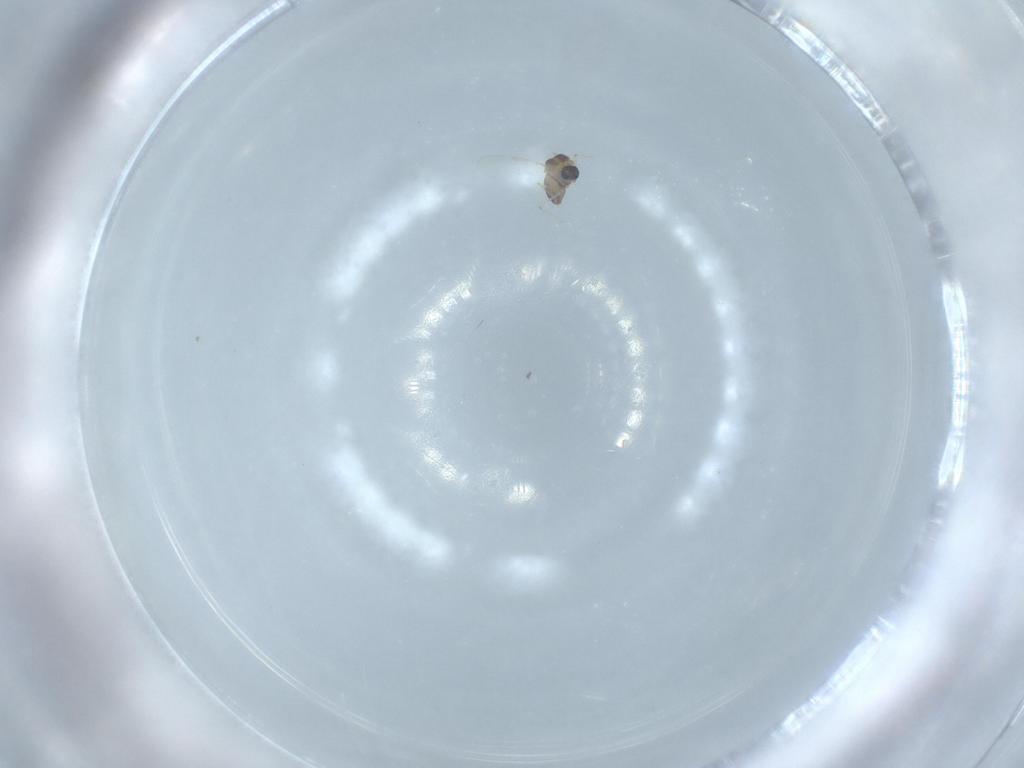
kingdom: Animalia
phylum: Arthropoda
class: Insecta
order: Diptera
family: Chironomidae
